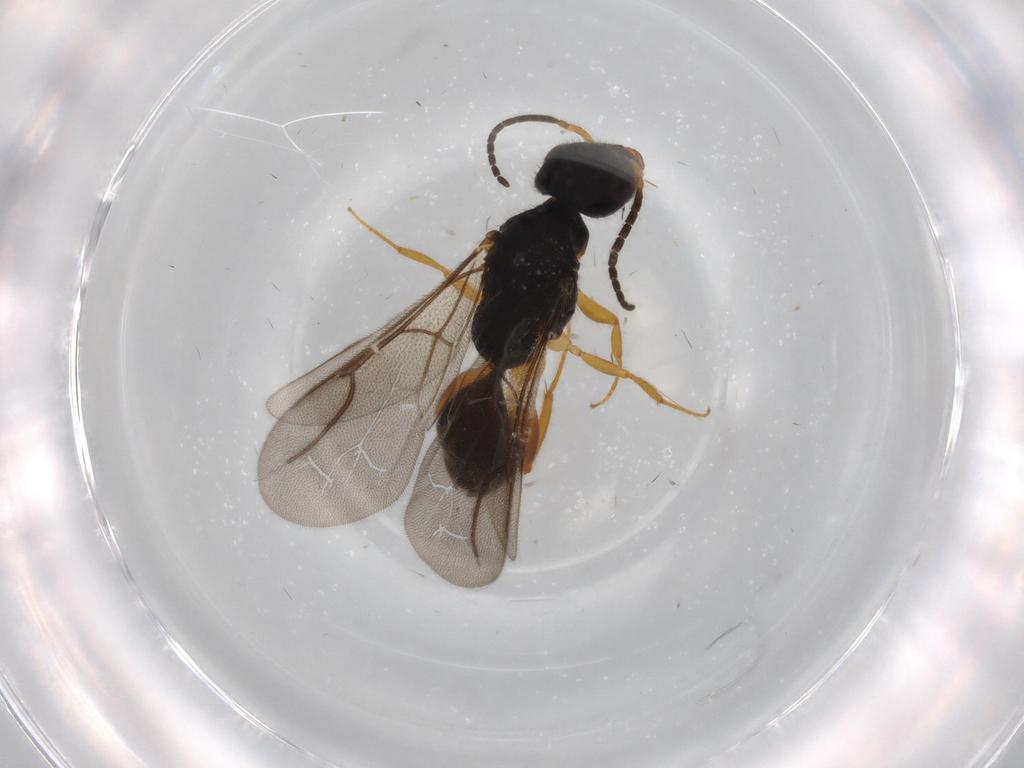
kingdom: Animalia
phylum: Arthropoda
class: Insecta
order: Hymenoptera
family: Bethylidae
